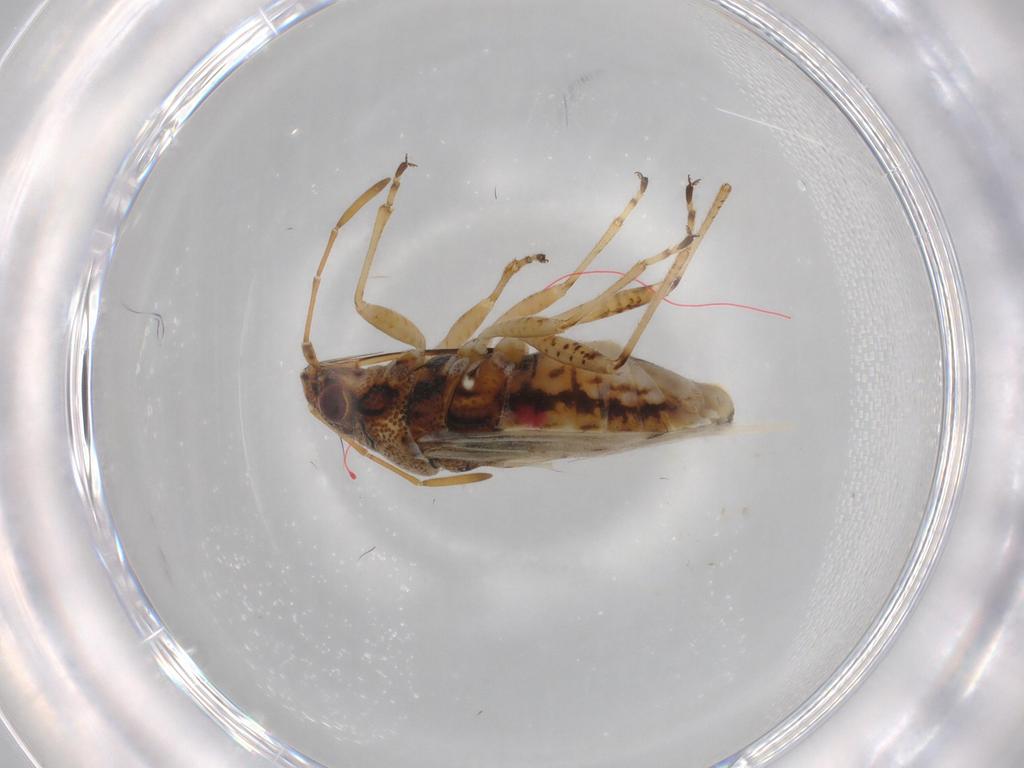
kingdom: Animalia
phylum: Arthropoda
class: Insecta
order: Hemiptera
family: Lygaeidae
